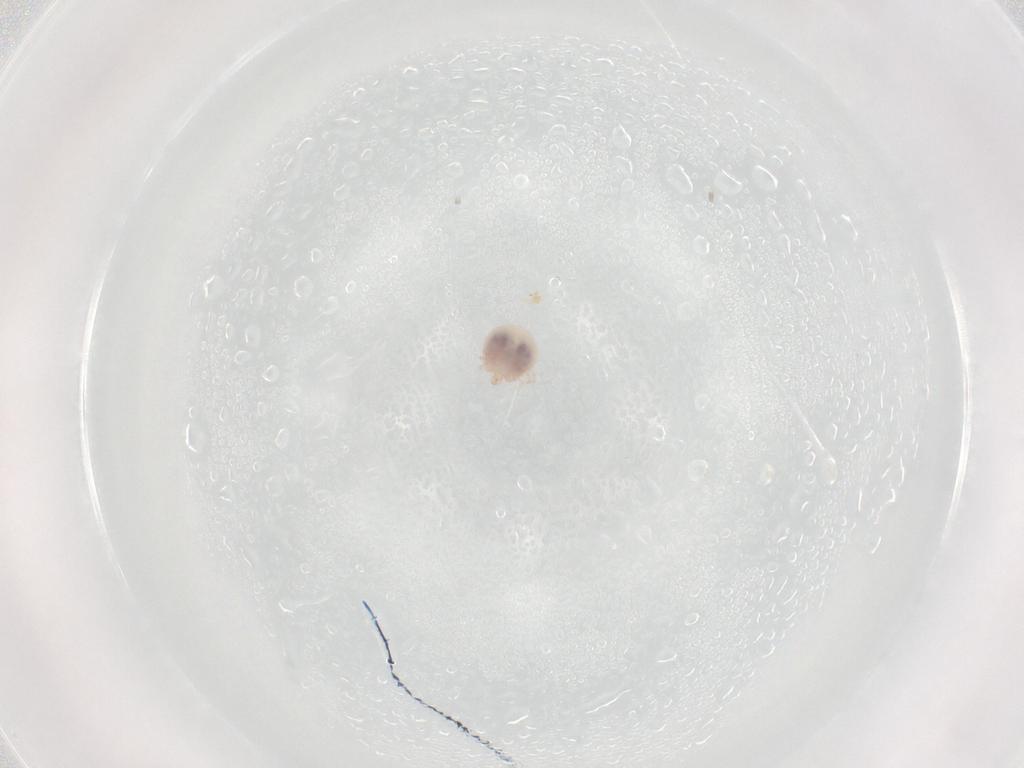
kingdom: Animalia
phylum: Arthropoda
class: Arachnida
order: Trombidiformes
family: Pionidae
